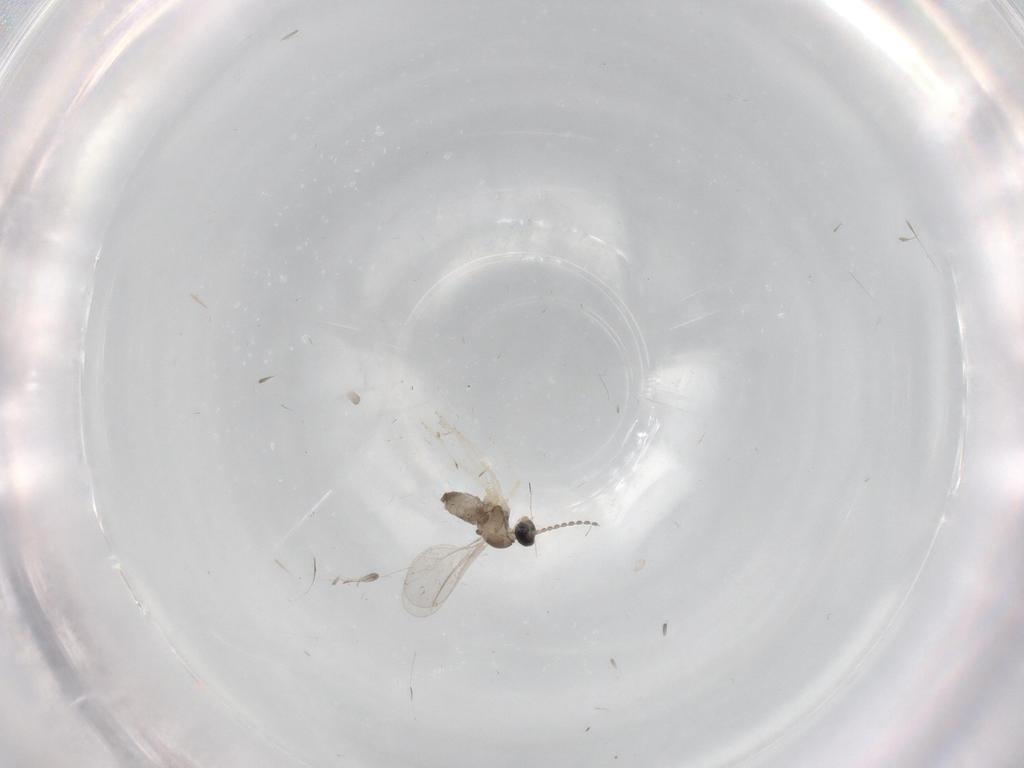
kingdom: Animalia
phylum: Arthropoda
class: Insecta
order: Diptera
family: Cecidomyiidae
